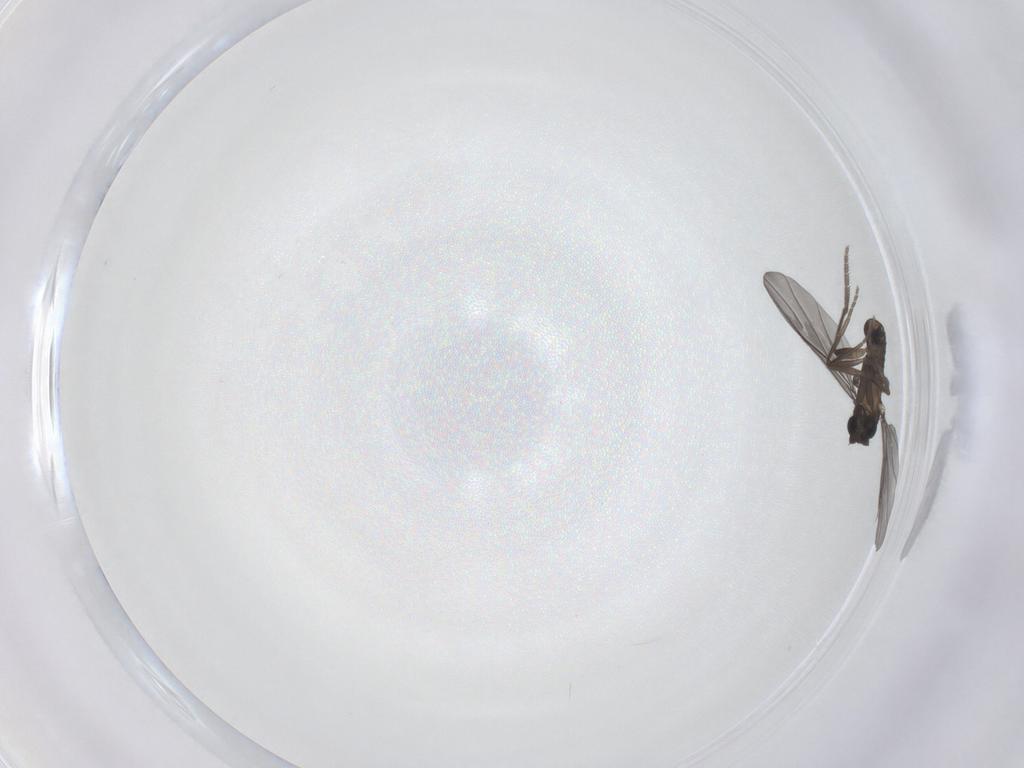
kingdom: Animalia
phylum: Arthropoda
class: Insecta
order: Diptera
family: Phoridae
